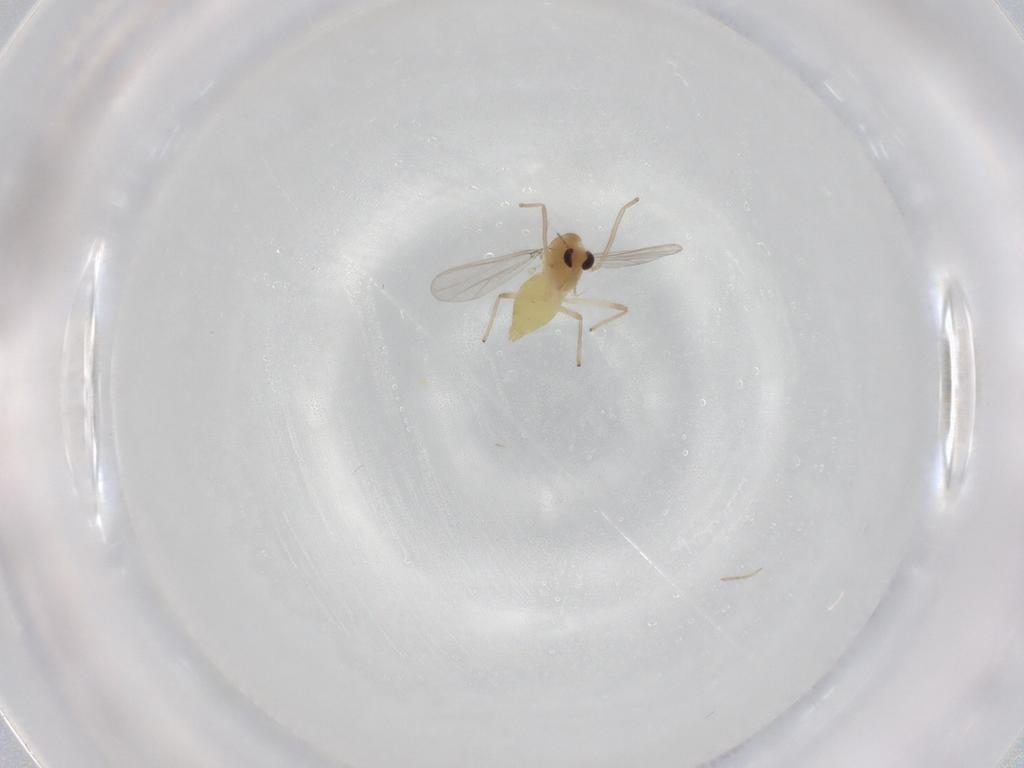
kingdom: Animalia
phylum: Arthropoda
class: Insecta
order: Diptera
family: Chironomidae
